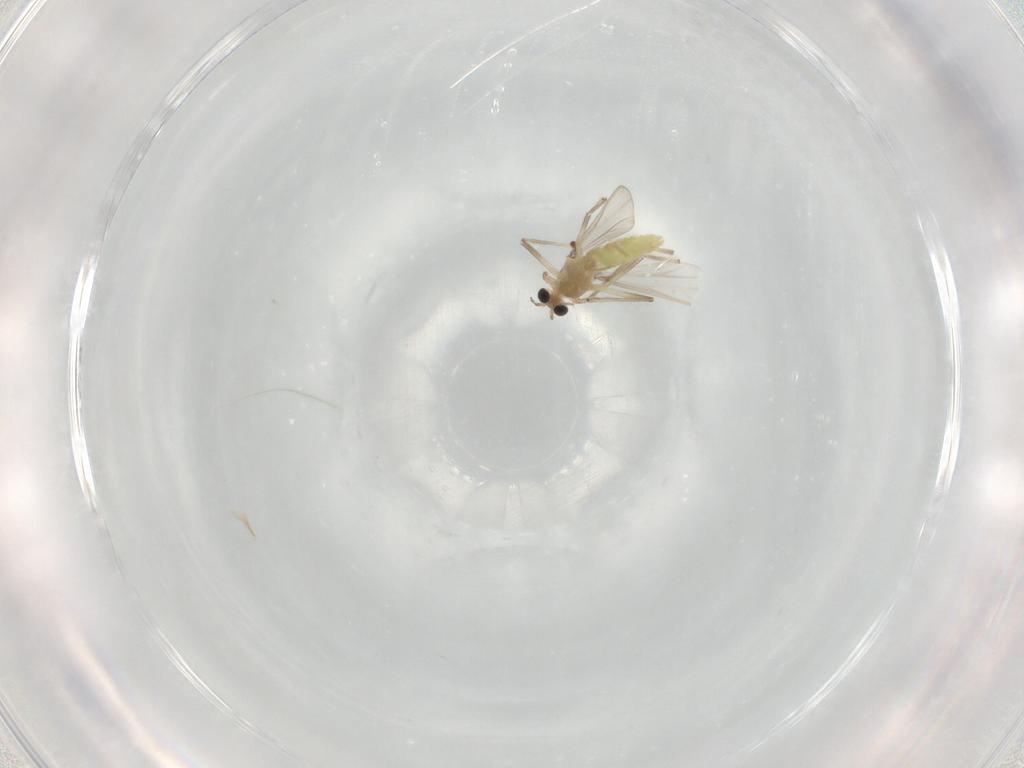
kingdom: Animalia
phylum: Arthropoda
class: Insecta
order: Diptera
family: Chironomidae
